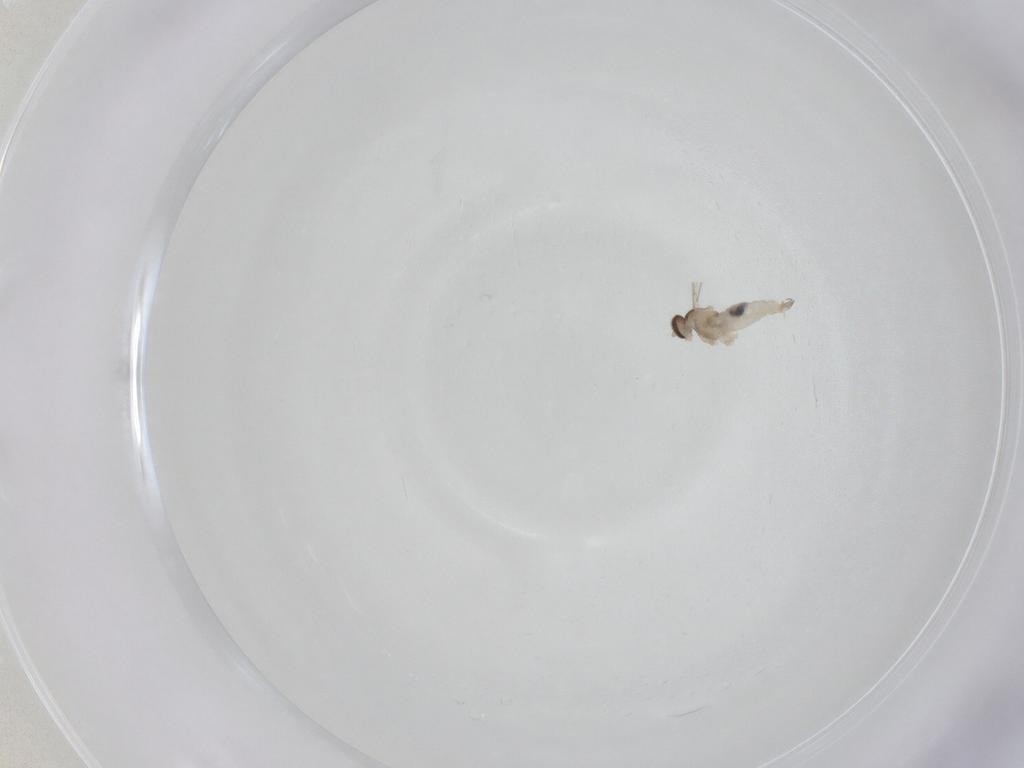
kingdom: Animalia
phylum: Arthropoda
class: Insecta
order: Diptera
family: Cecidomyiidae
